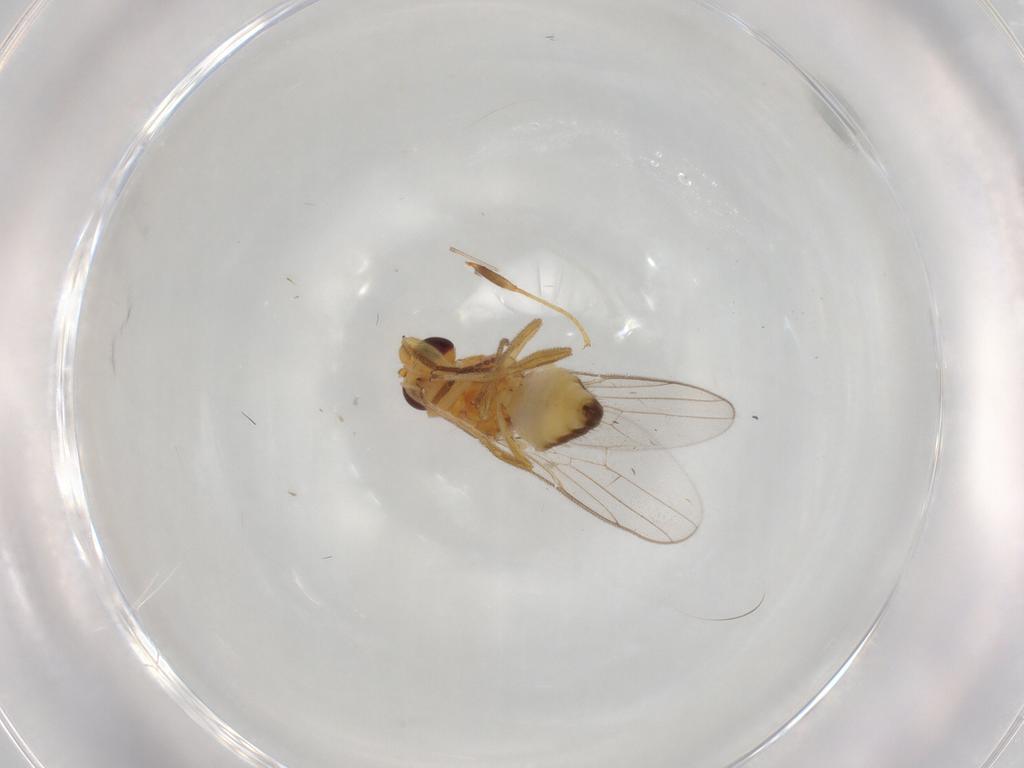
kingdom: Animalia
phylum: Arthropoda
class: Insecta
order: Diptera
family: Chloropidae
